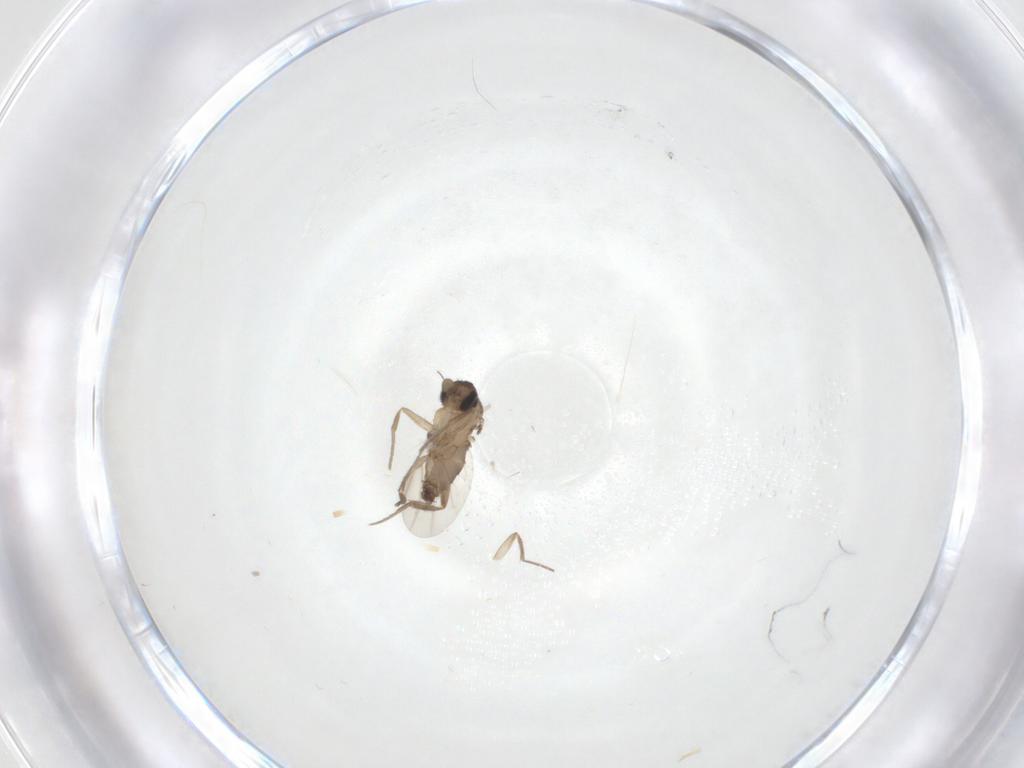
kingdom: Animalia
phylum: Arthropoda
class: Insecta
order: Diptera
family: Phoridae
